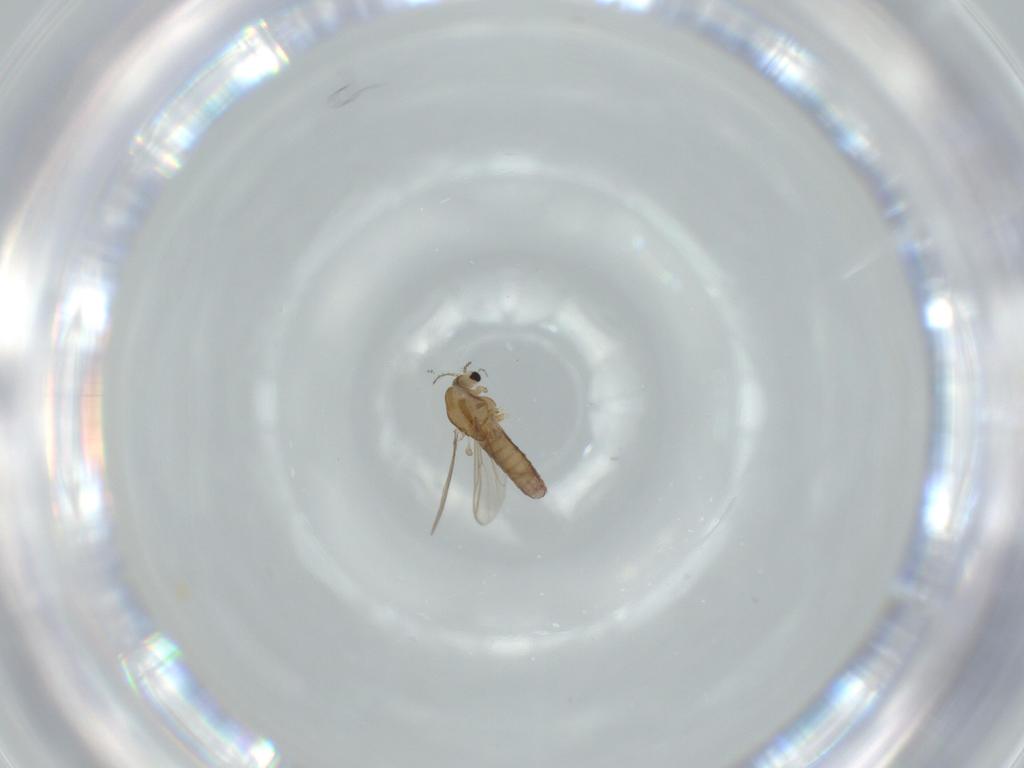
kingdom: Animalia
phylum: Arthropoda
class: Insecta
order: Diptera
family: Chironomidae
